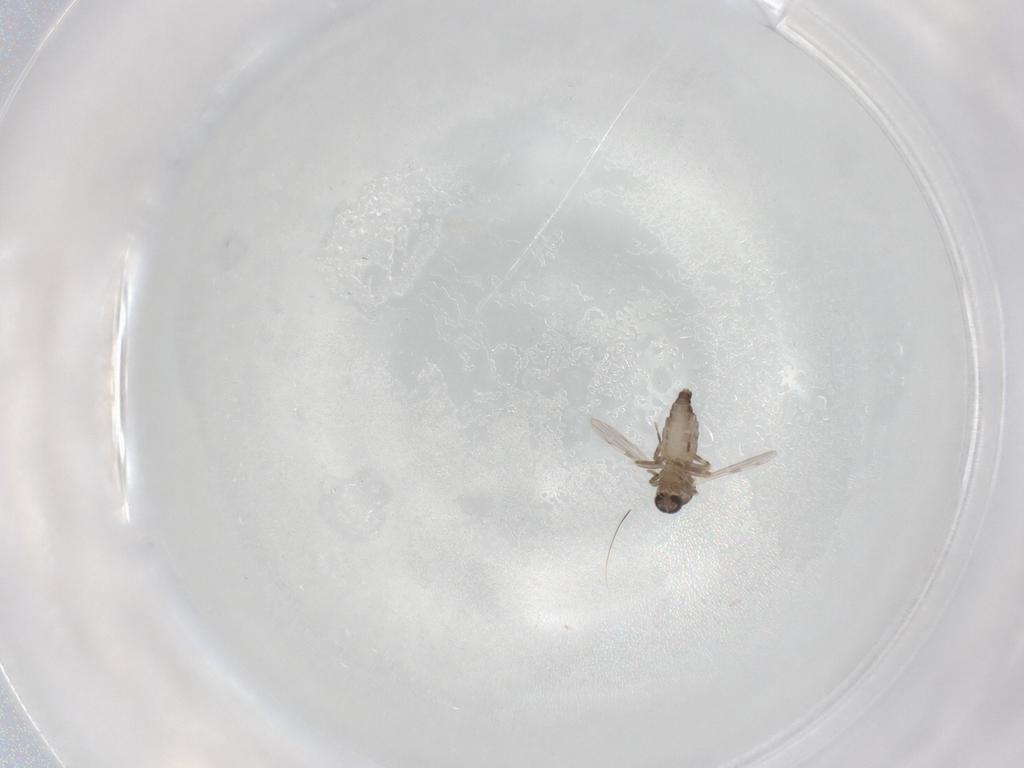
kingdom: Animalia
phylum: Arthropoda
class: Insecta
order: Diptera
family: Ceratopogonidae
